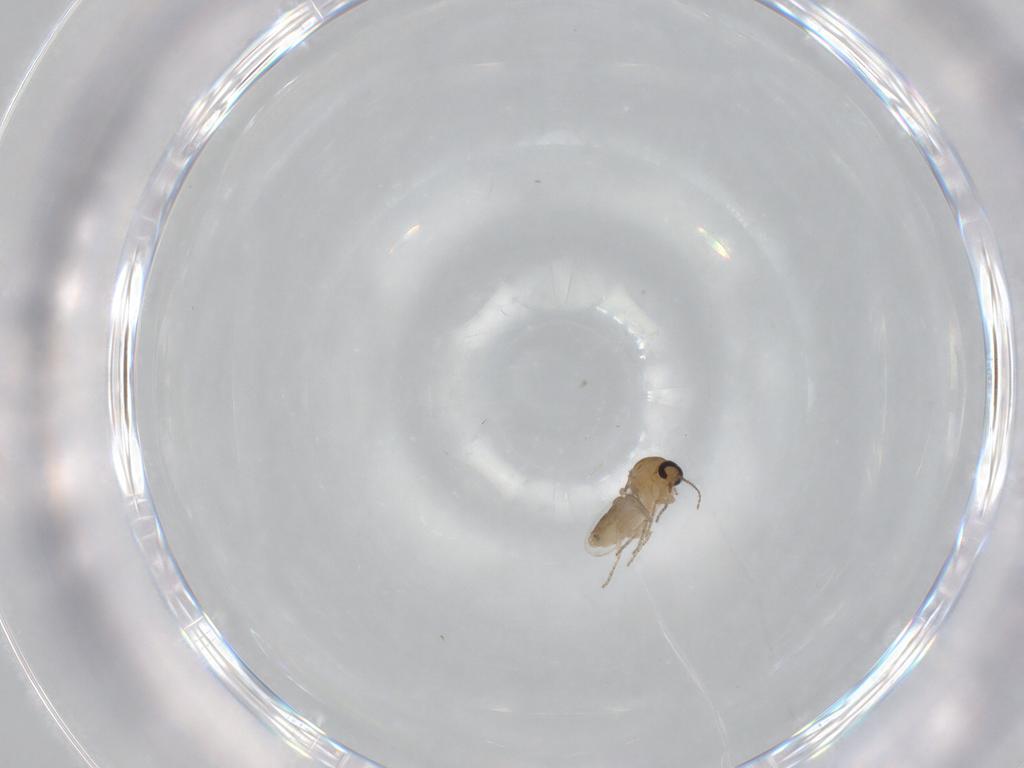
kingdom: Animalia
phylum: Arthropoda
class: Insecta
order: Diptera
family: Ceratopogonidae
